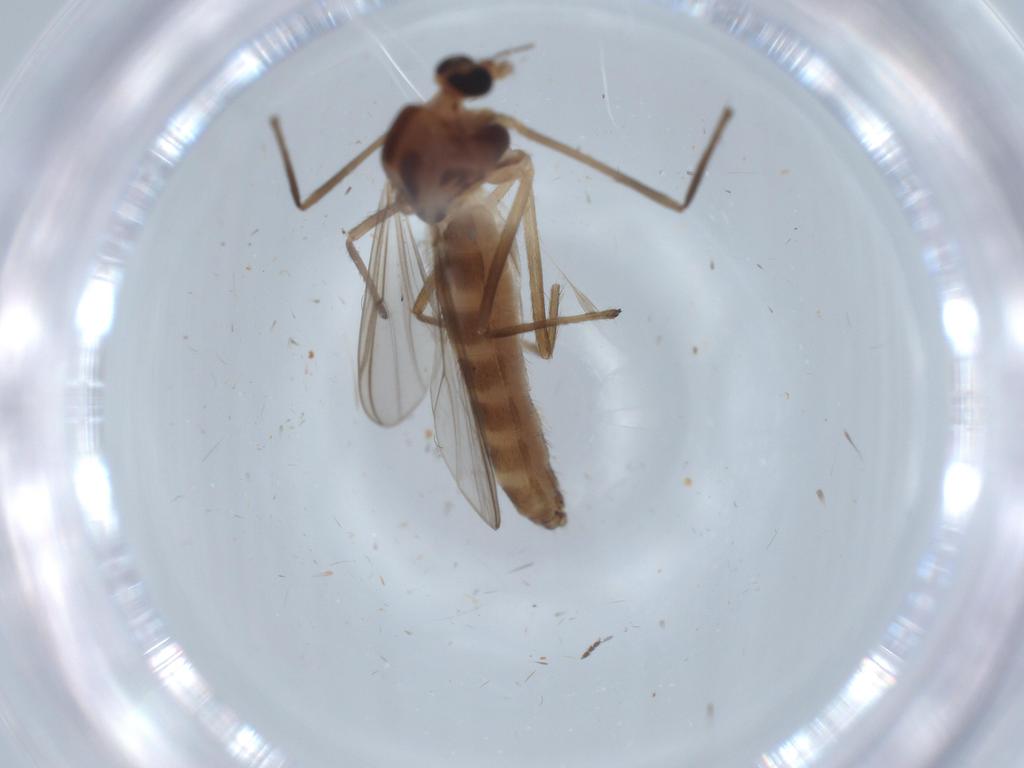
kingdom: Animalia
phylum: Arthropoda
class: Insecta
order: Diptera
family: Chironomidae
